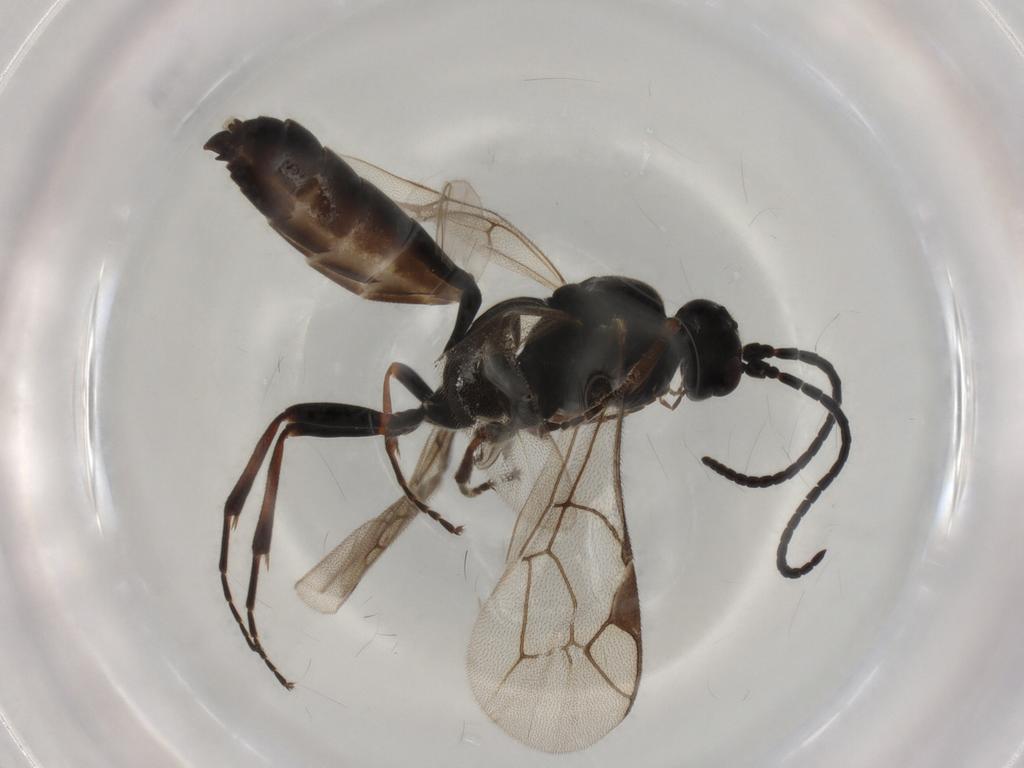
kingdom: Animalia
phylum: Arthropoda
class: Insecta
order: Hymenoptera
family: Ichneumonidae
